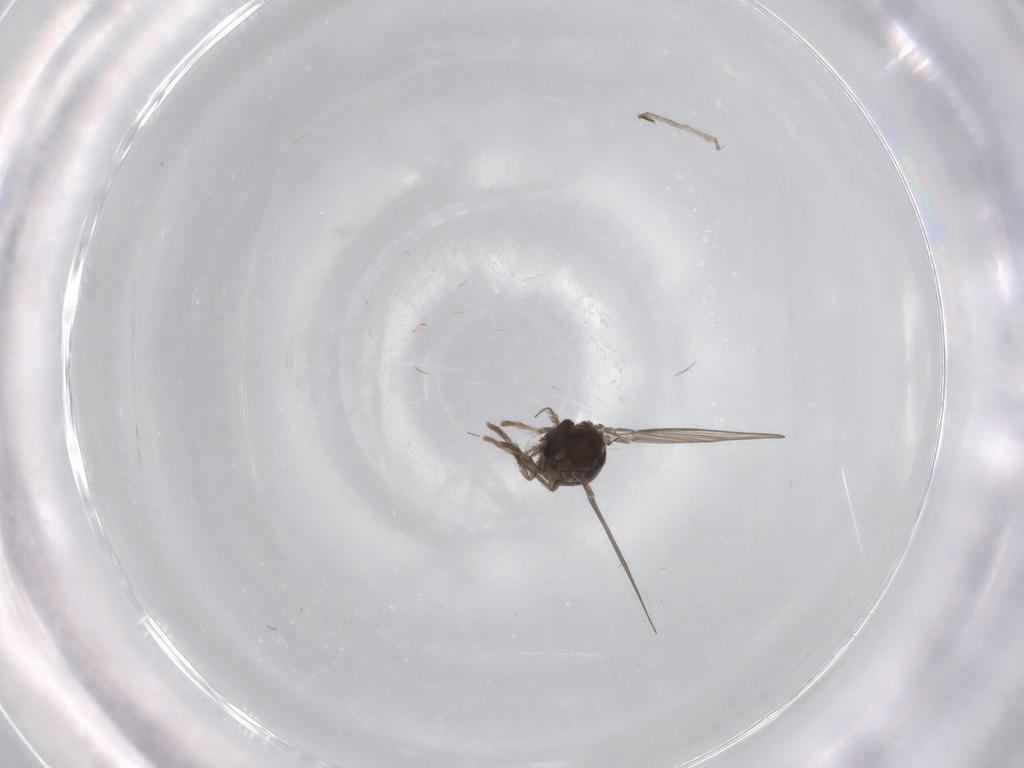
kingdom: Animalia
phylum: Arthropoda
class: Insecta
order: Diptera
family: Psychodidae
